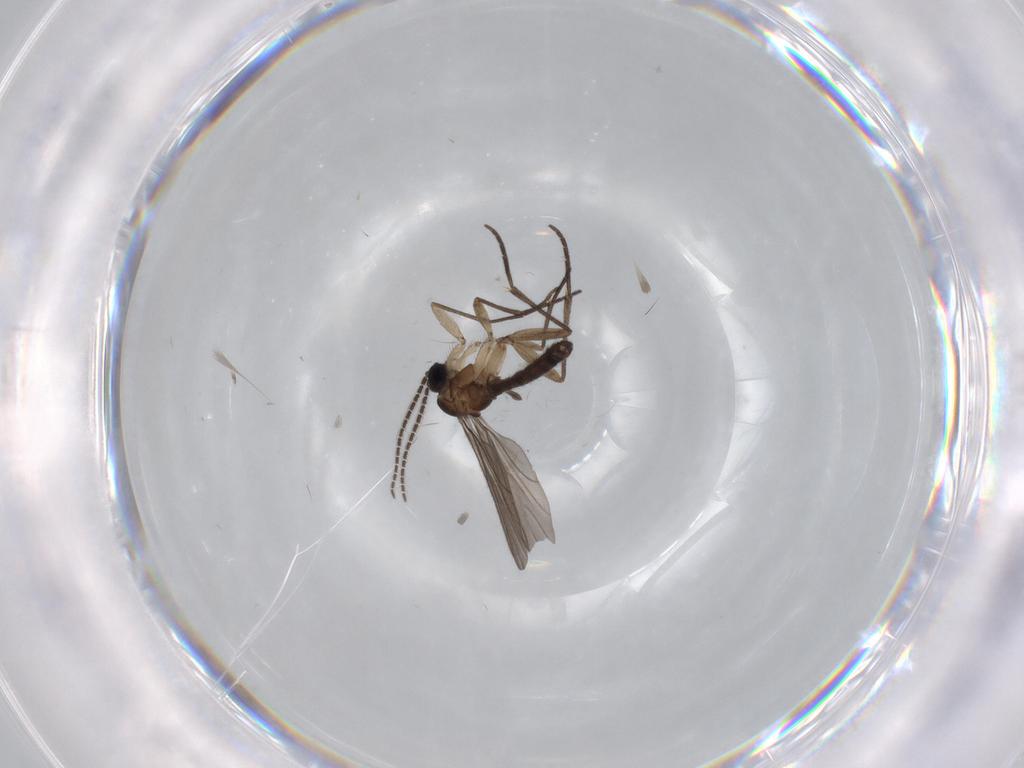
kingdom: Animalia
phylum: Arthropoda
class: Insecta
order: Diptera
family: Sciaridae
